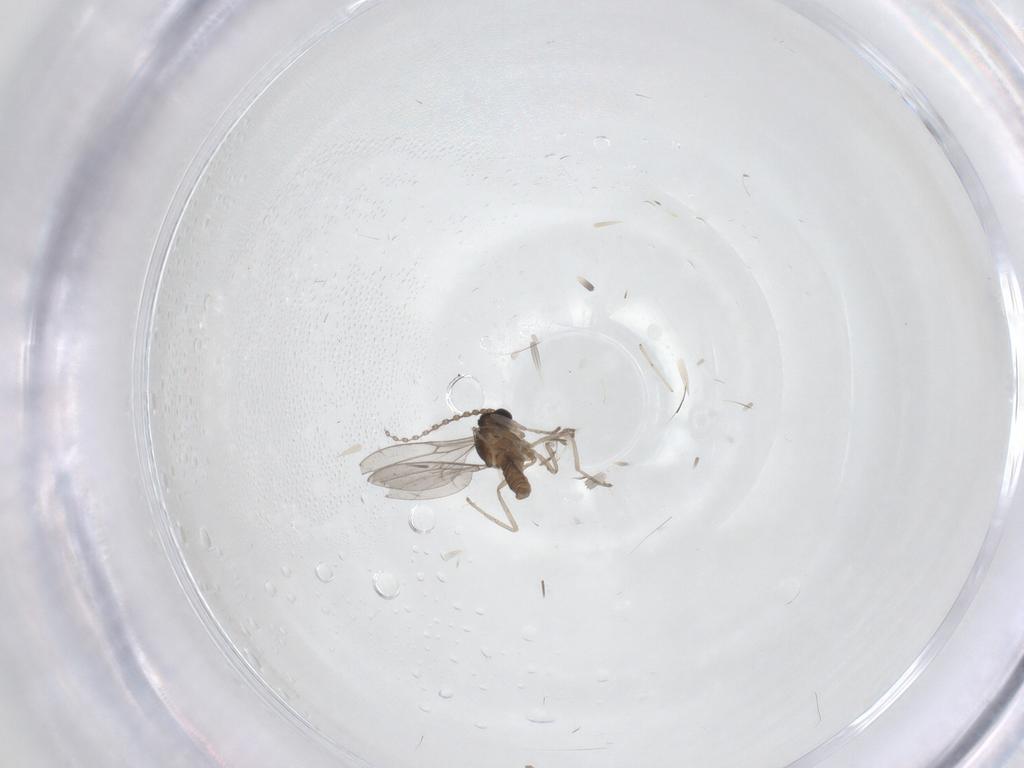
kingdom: Animalia
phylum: Arthropoda
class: Insecta
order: Diptera
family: Cecidomyiidae
